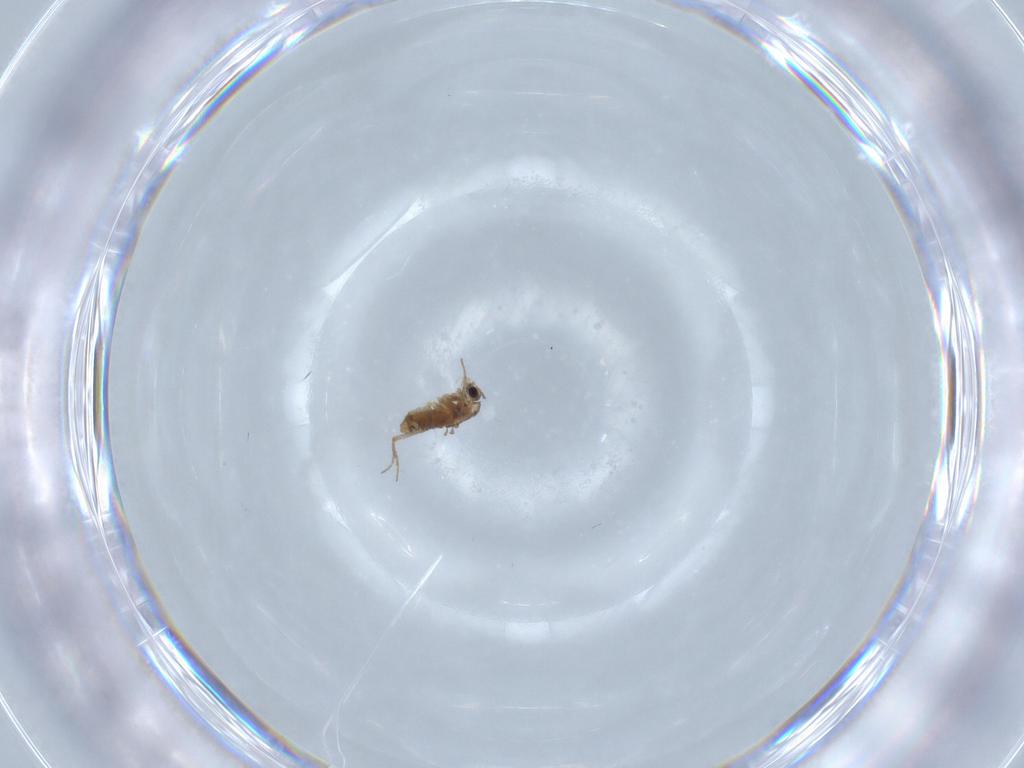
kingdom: Animalia
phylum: Arthropoda
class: Insecta
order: Diptera
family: Chironomidae
